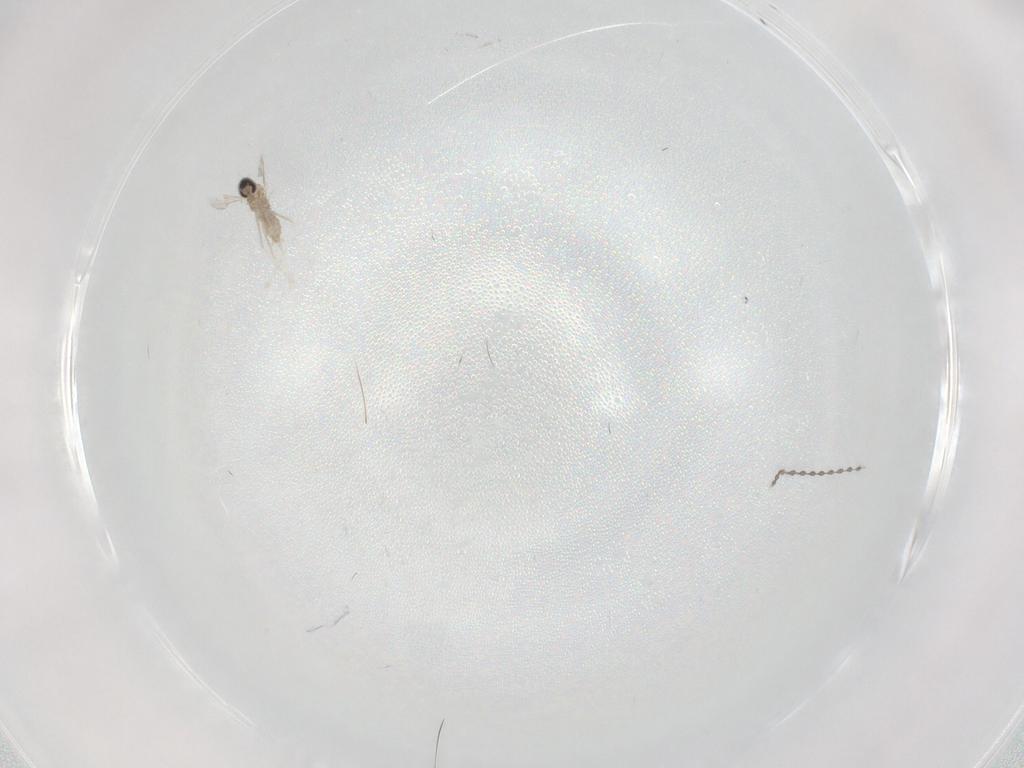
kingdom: Animalia
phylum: Arthropoda
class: Insecta
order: Diptera
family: Cecidomyiidae
